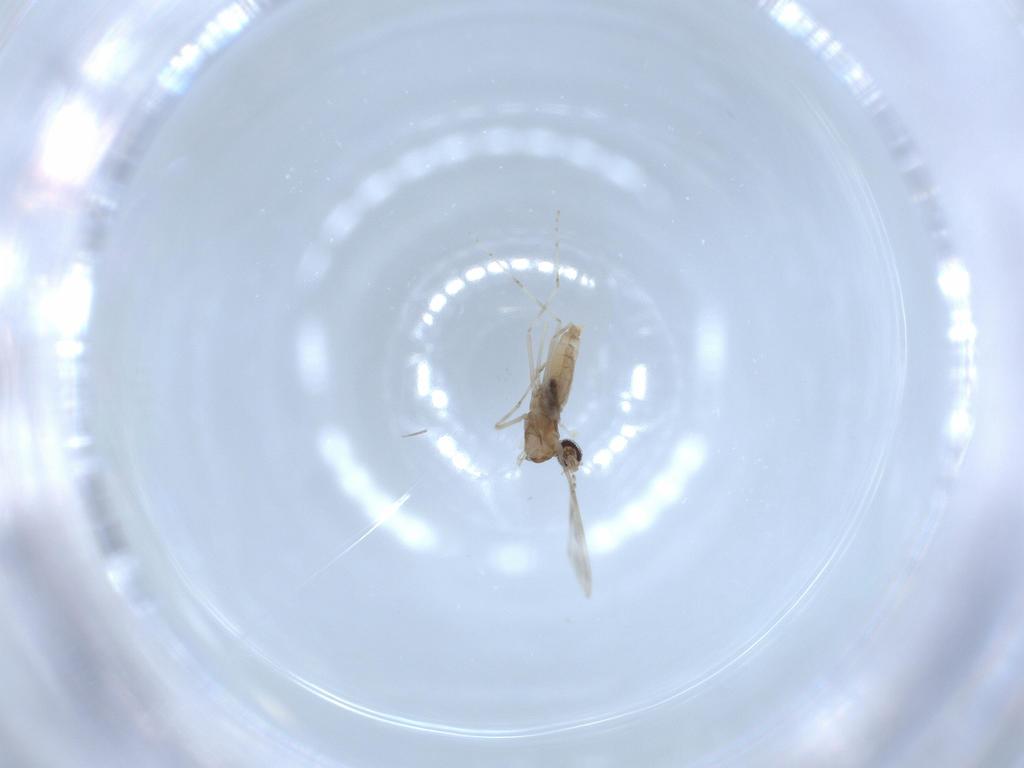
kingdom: Animalia
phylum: Arthropoda
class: Insecta
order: Diptera
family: Cecidomyiidae
